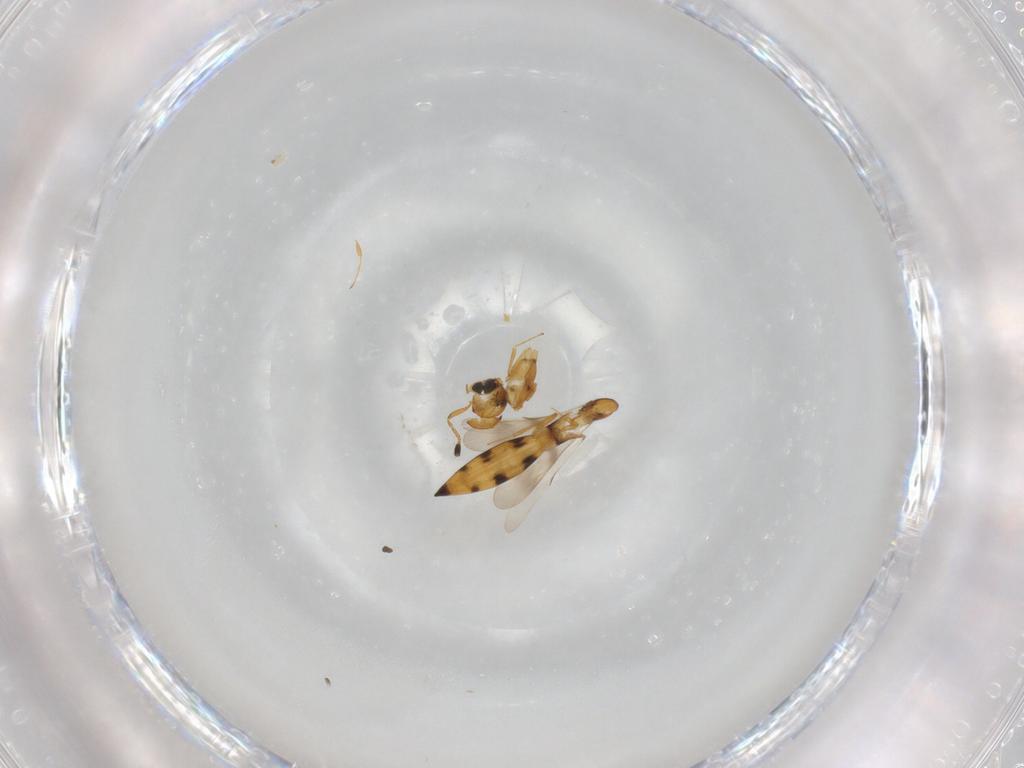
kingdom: Animalia
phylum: Arthropoda
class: Insecta
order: Hymenoptera
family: Scelionidae
